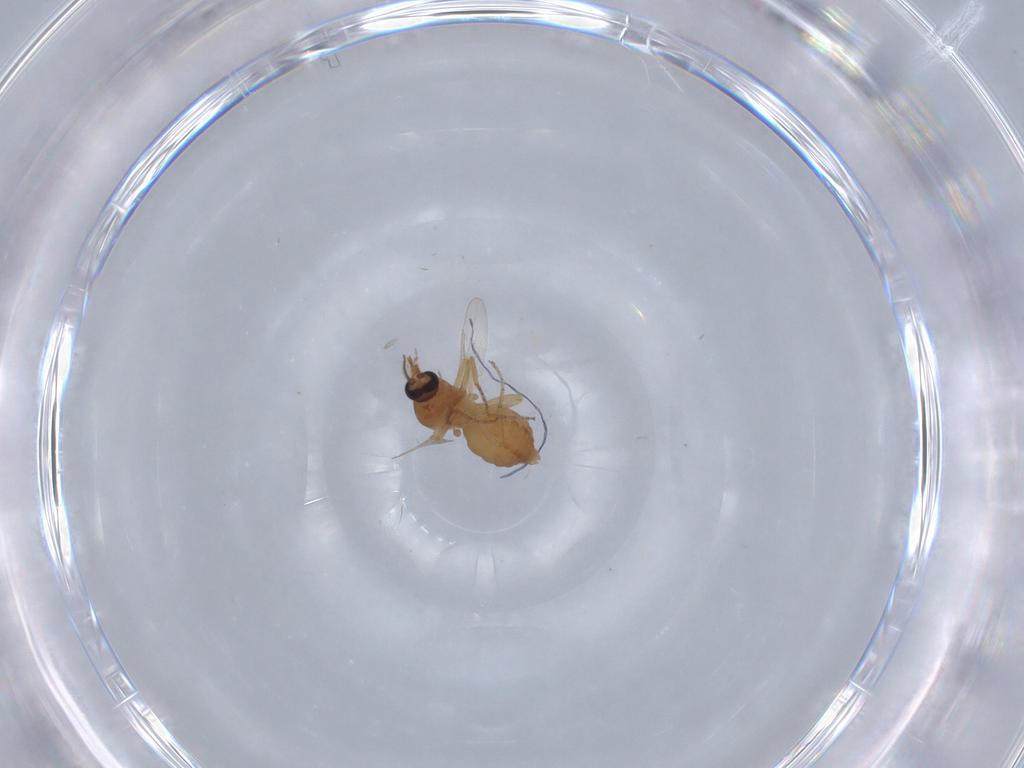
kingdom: Animalia
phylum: Arthropoda
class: Insecta
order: Diptera
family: Ceratopogonidae
